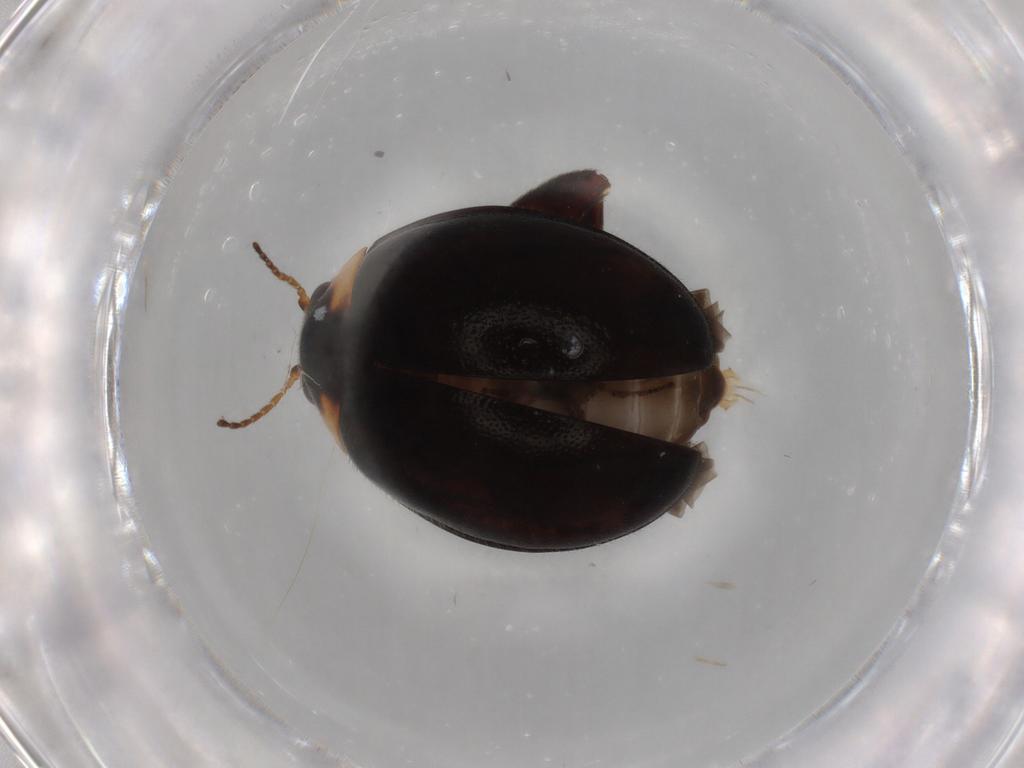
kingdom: Animalia
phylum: Arthropoda
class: Insecta
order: Coleoptera
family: Scirtidae
